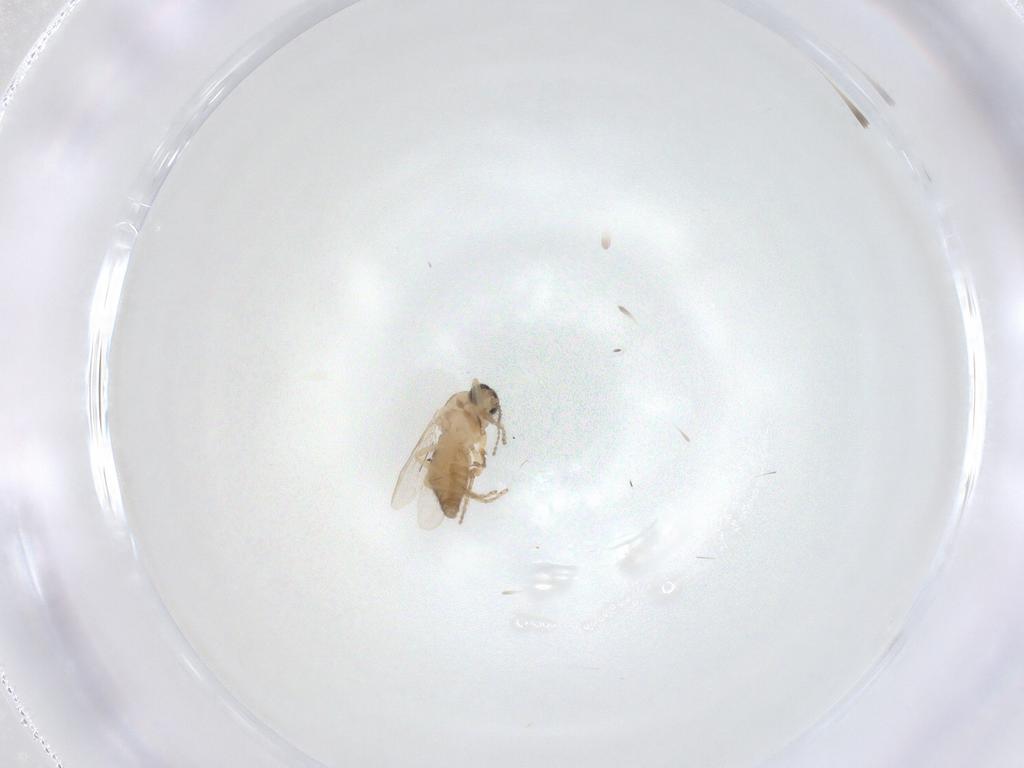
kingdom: Animalia
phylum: Arthropoda
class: Insecta
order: Diptera
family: Ceratopogonidae
